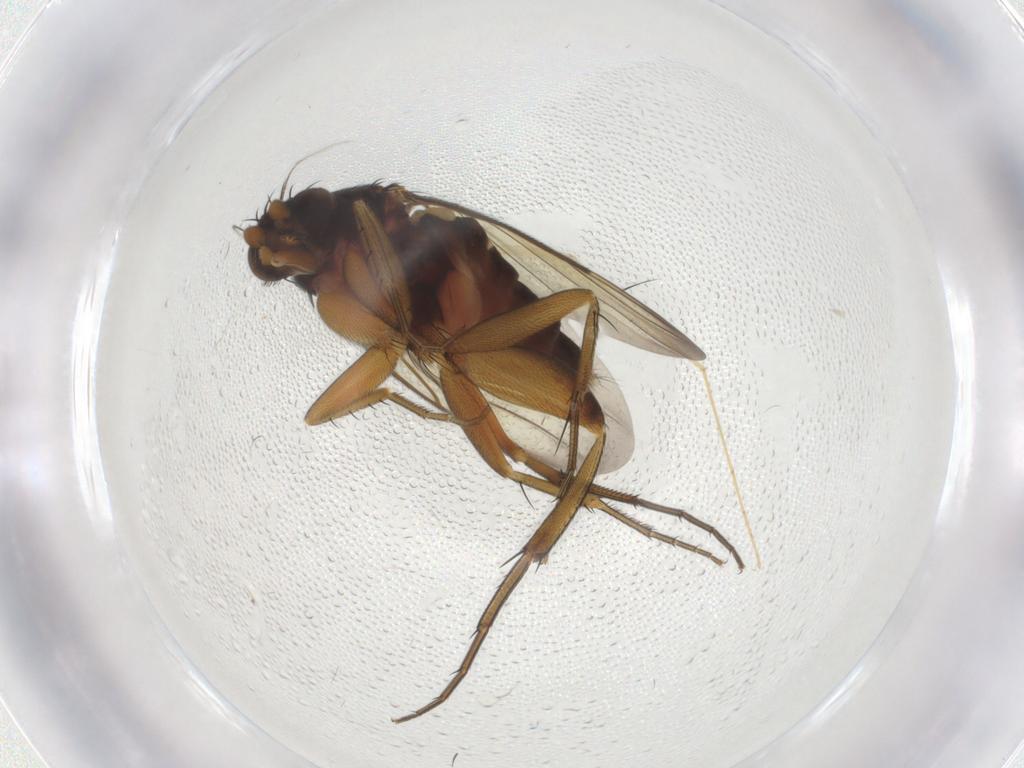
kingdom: Animalia
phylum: Arthropoda
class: Insecta
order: Diptera
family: Phoridae
